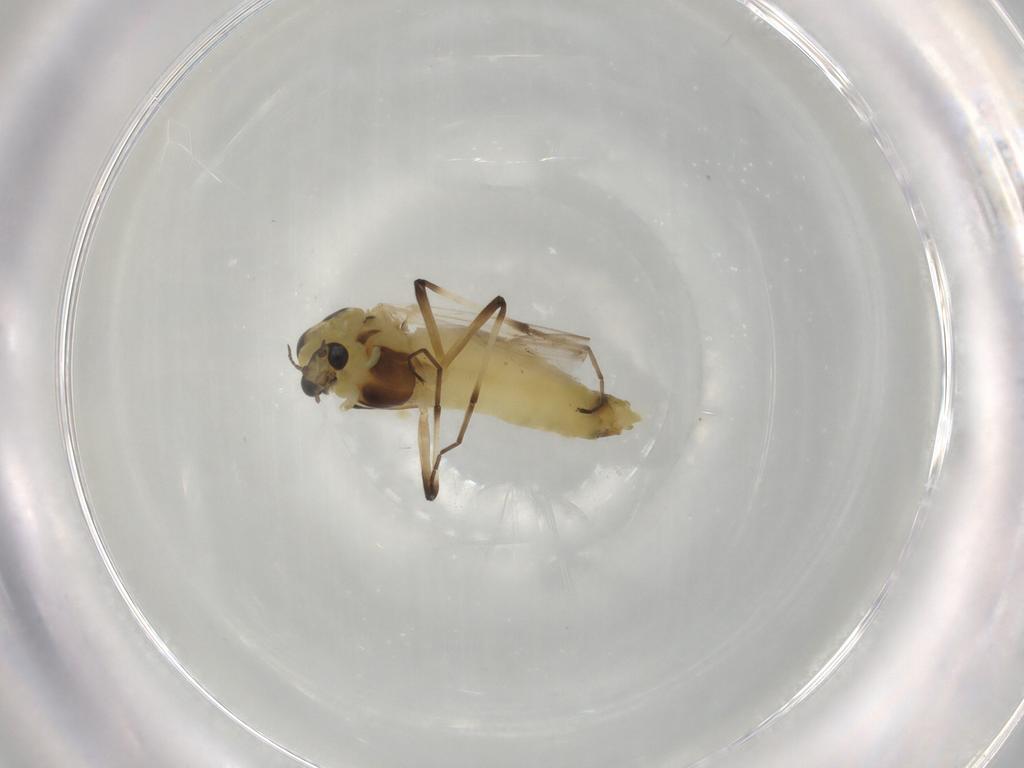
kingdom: Animalia
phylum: Arthropoda
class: Insecta
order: Diptera
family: Chironomidae
